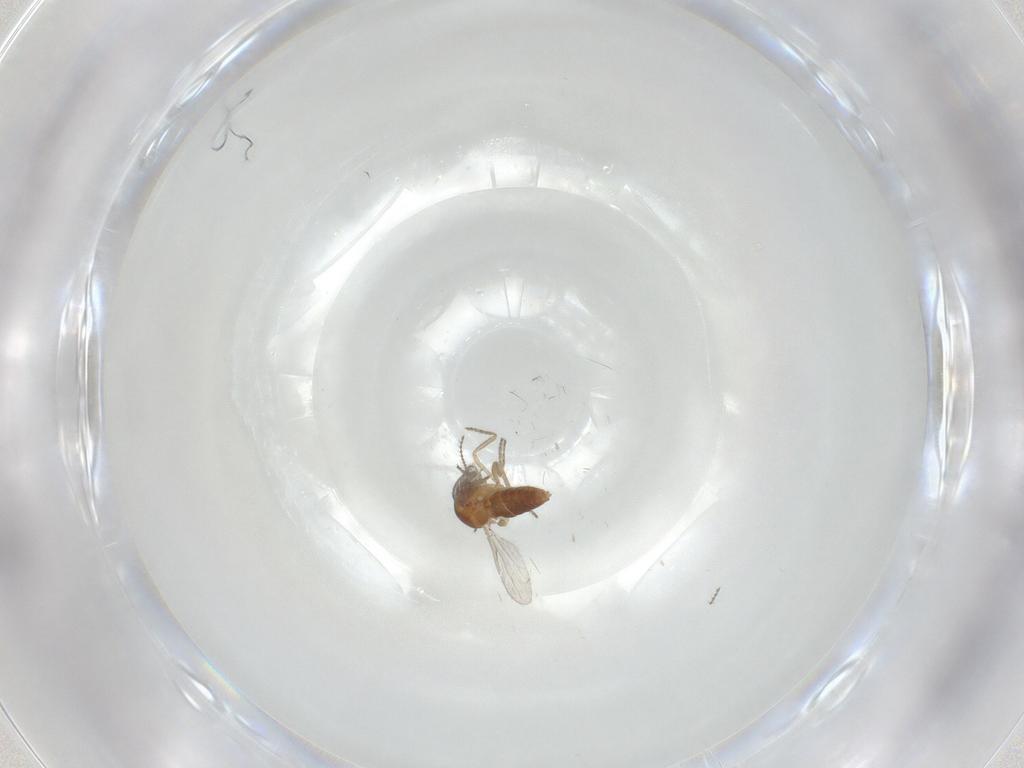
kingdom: Animalia
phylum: Arthropoda
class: Insecta
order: Diptera
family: Ceratopogonidae
